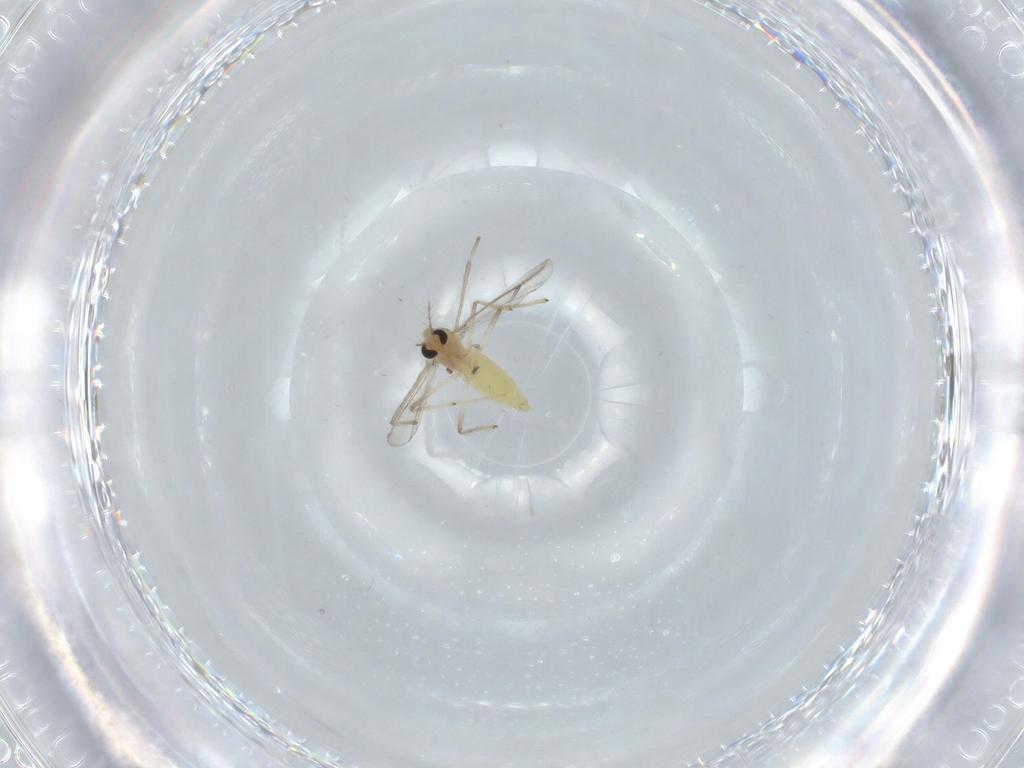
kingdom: Animalia
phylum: Arthropoda
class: Insecta
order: Diptera
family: Chironomidae
